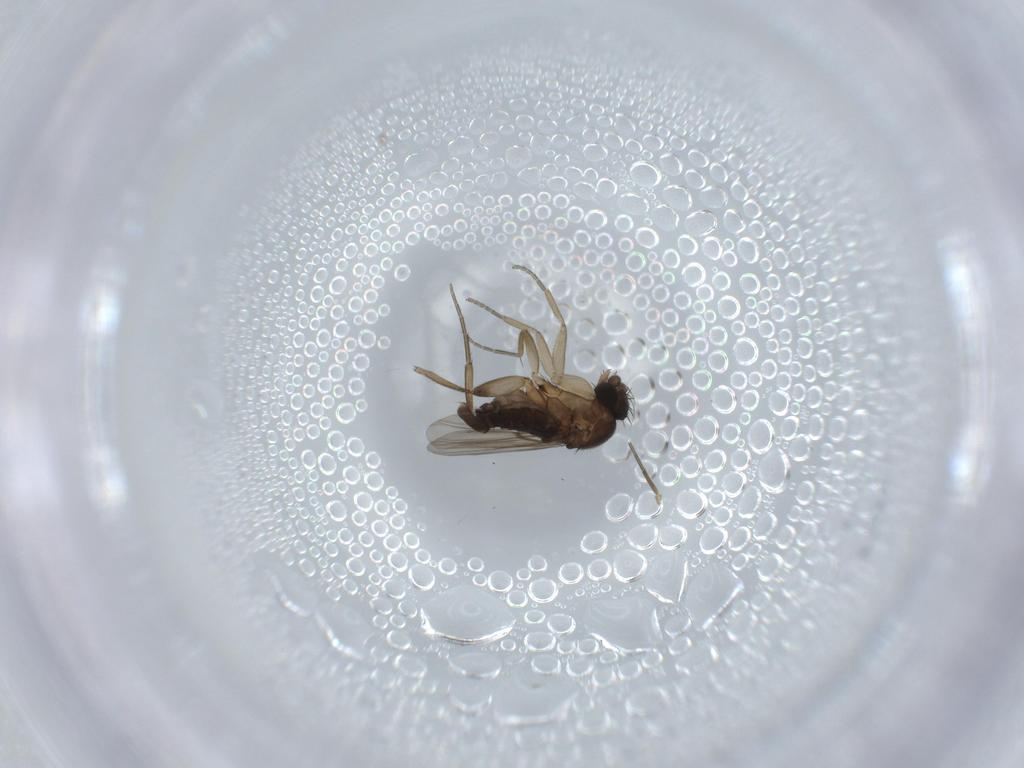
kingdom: Animalia
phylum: Arthropoda
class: Insecta
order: Diptera
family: Phoridae
